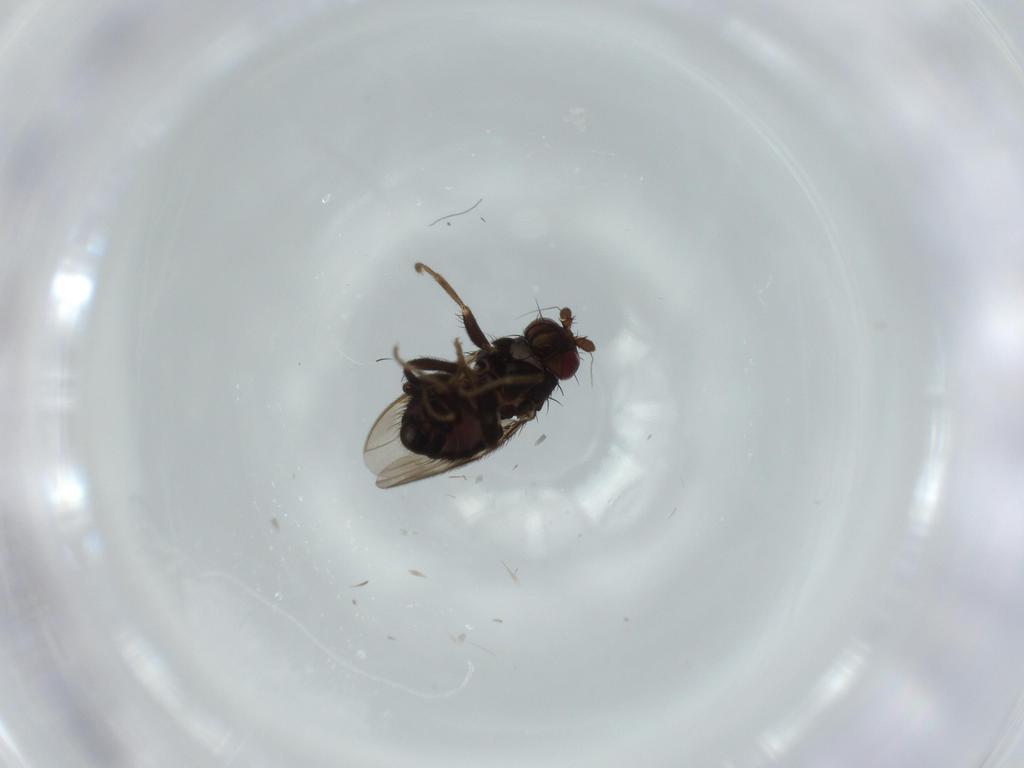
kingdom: Animalia
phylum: Arthropoda
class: Insecta
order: Diptera
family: Sphaeroceridae
